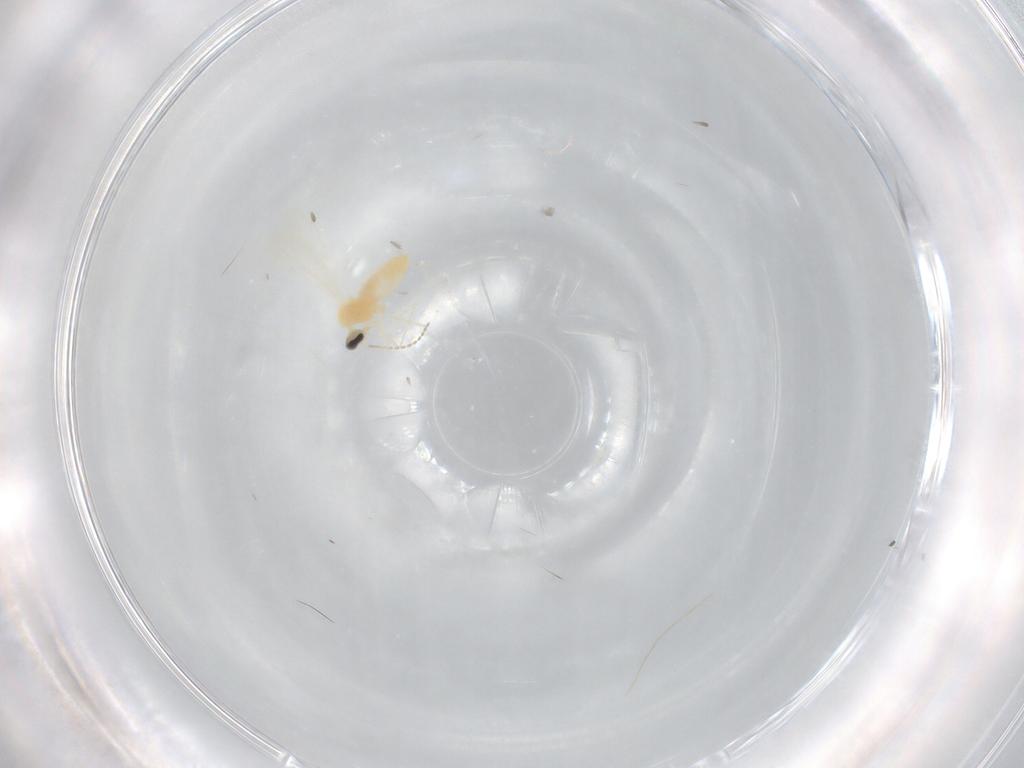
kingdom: Animalia
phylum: Arthropoda
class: Insecta
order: Diptera
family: Cecidomyiidae
